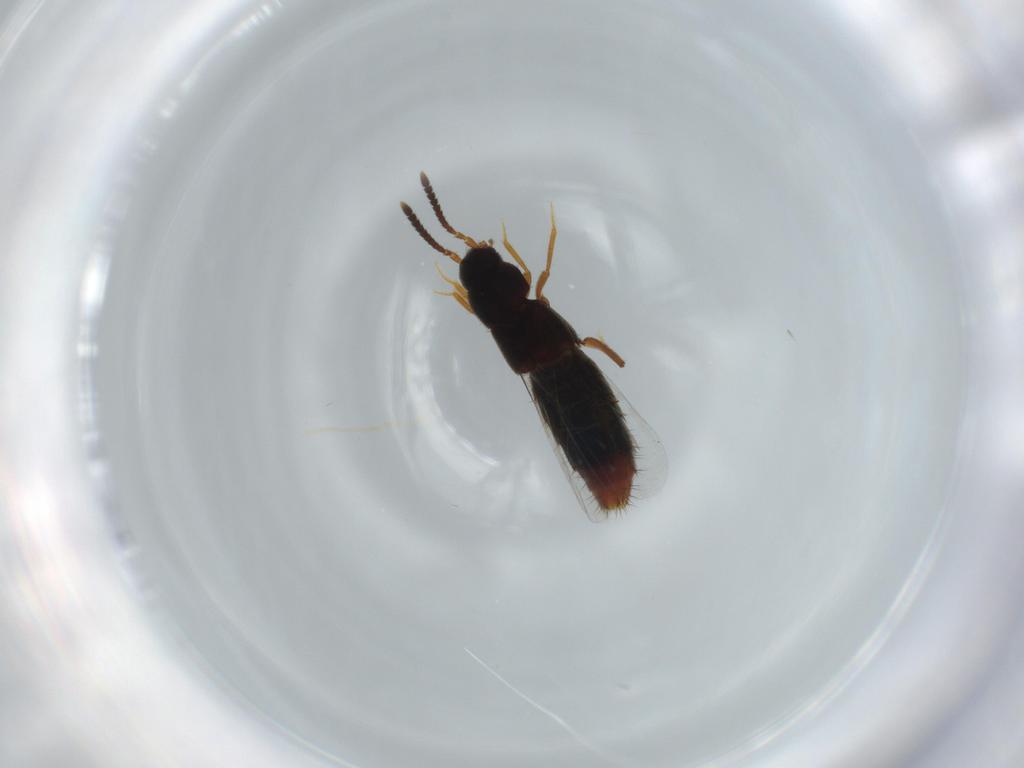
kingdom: Animalia
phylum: Arthropoda
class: Insecta
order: Coleoptera
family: Staphylinidae
